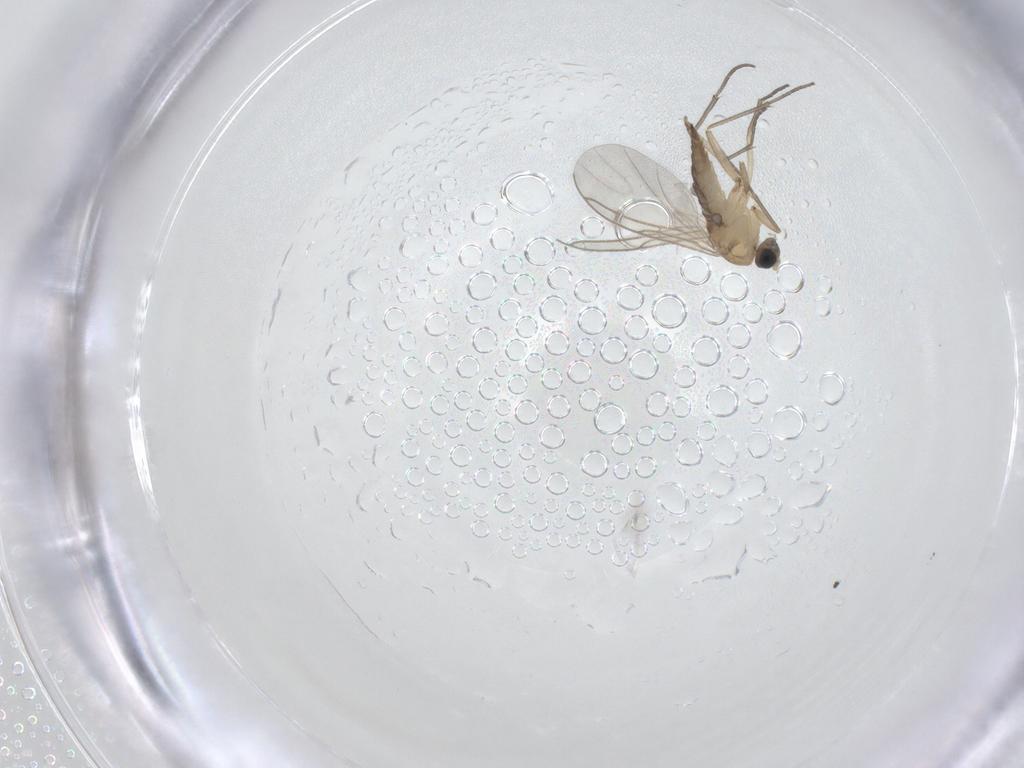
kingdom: Animalia
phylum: Arthropoda
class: Insecta
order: Diptera
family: Sciaridae
